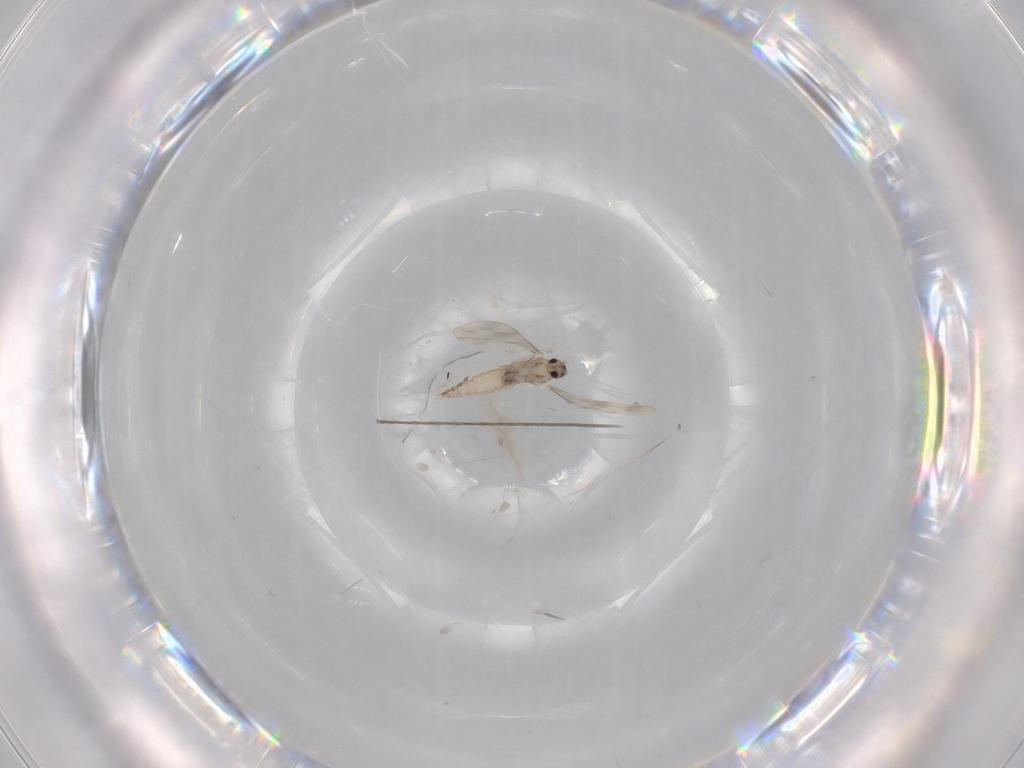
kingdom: Animalia
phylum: Arthropoda
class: Insecta
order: Diptera
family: Cecidomyiidae
